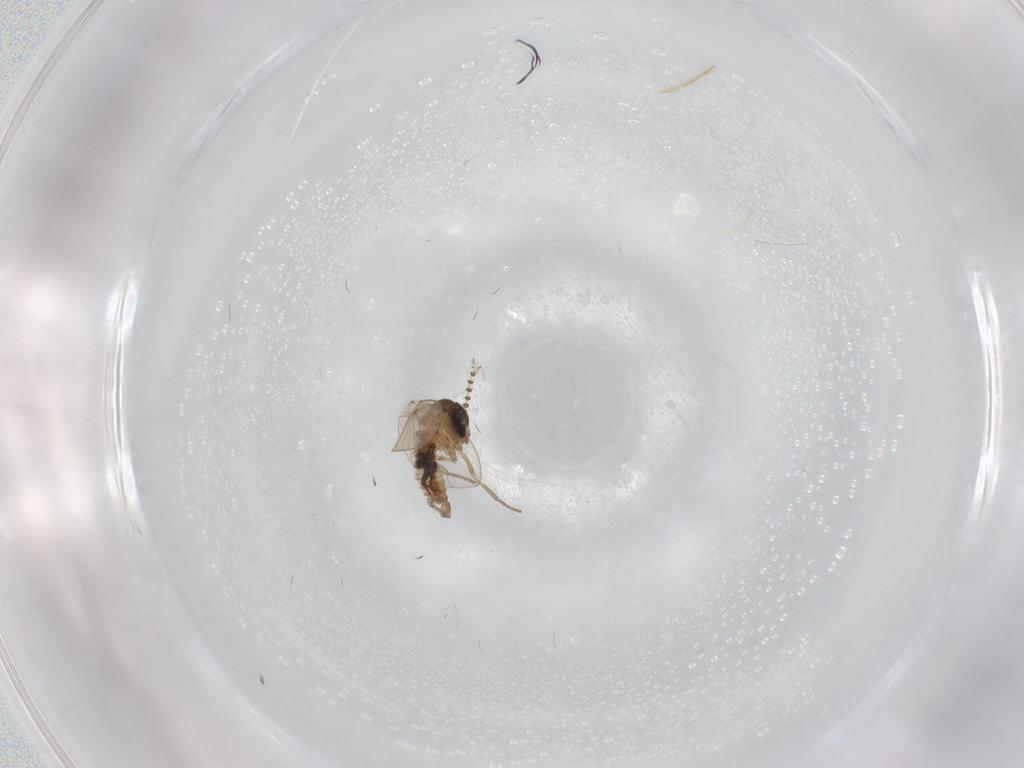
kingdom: Animalia
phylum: Arthropoda
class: Insecta
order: Diptera
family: Psychodidae
